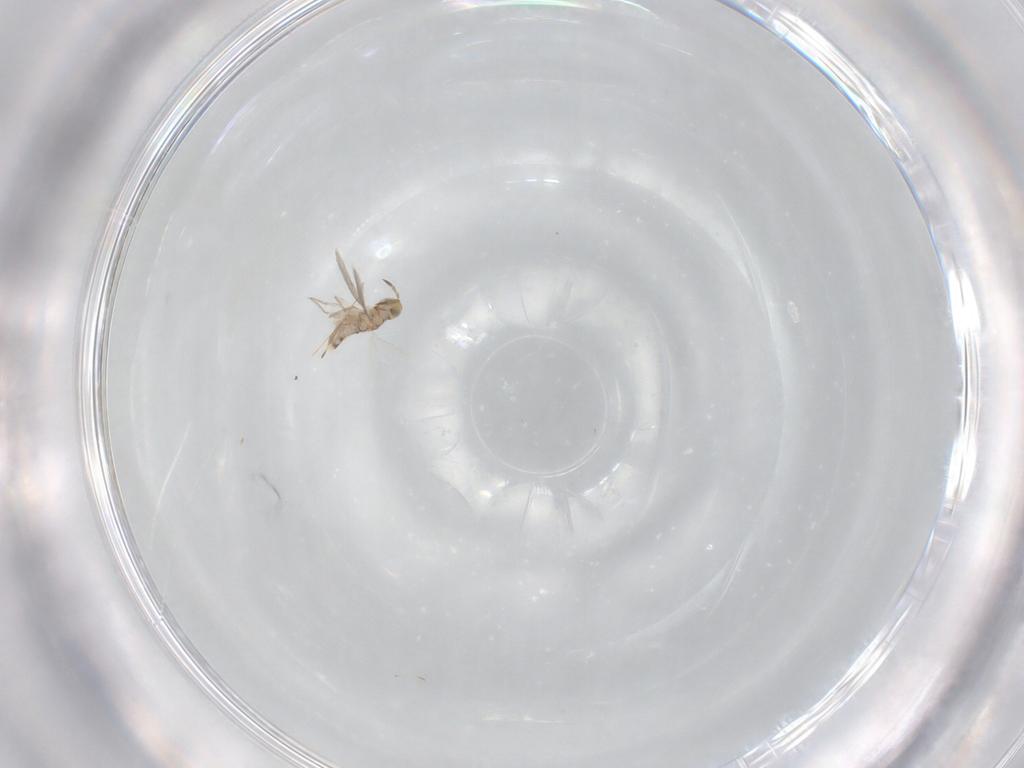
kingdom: Animalia
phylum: Arthropoda
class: Insecta
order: Hymenoptera
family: Aphelinidae
